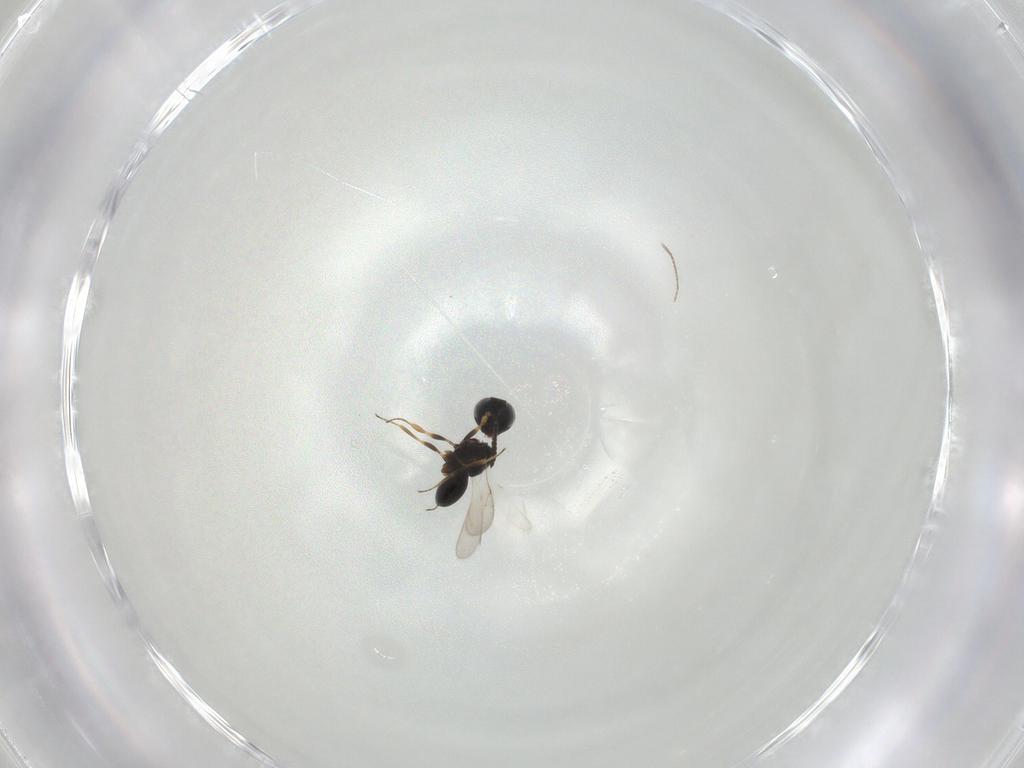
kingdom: Animalia
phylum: Arthropoda
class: Insecta
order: Hymenoptera
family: Scelionidae
